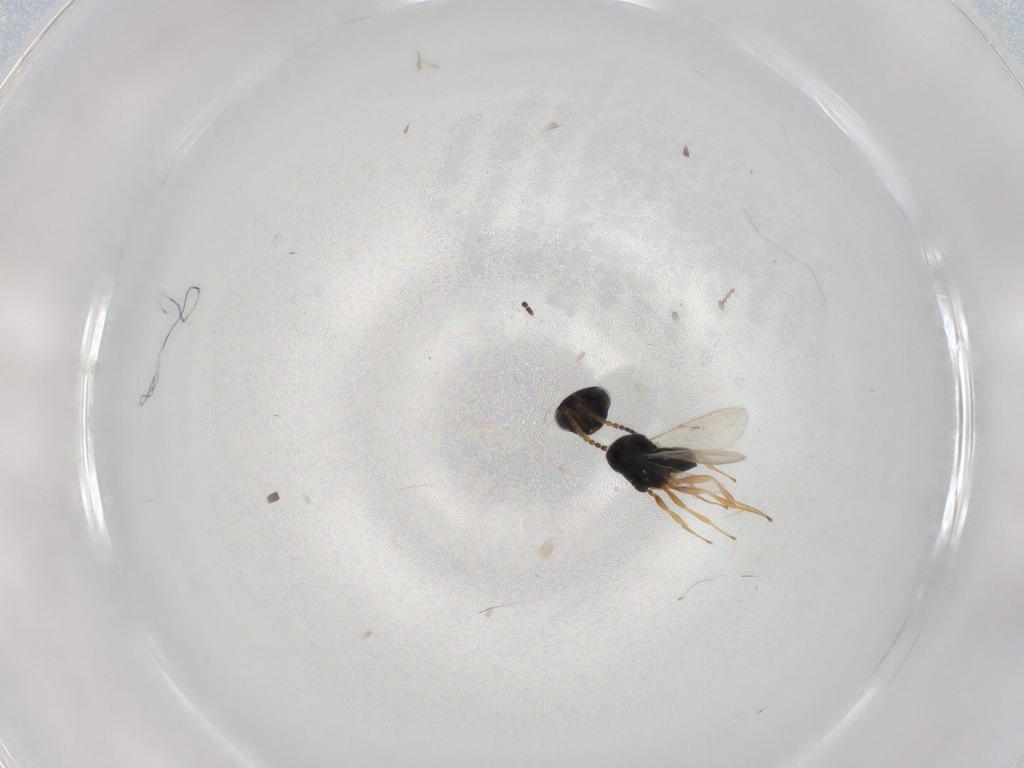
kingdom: Animalia
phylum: Arthropoda
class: Insecta
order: Hymenoptera
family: Scelionidae
